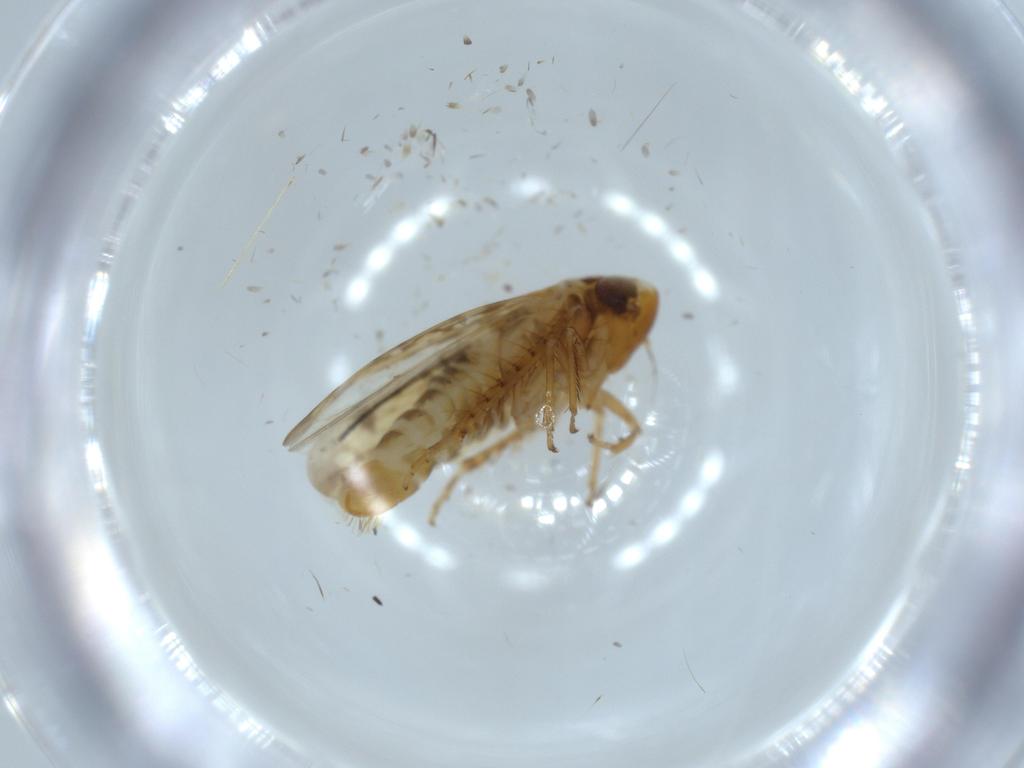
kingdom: Animalia
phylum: Arthropoda
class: Insecta
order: Hemiptera
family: Cicadellidae
